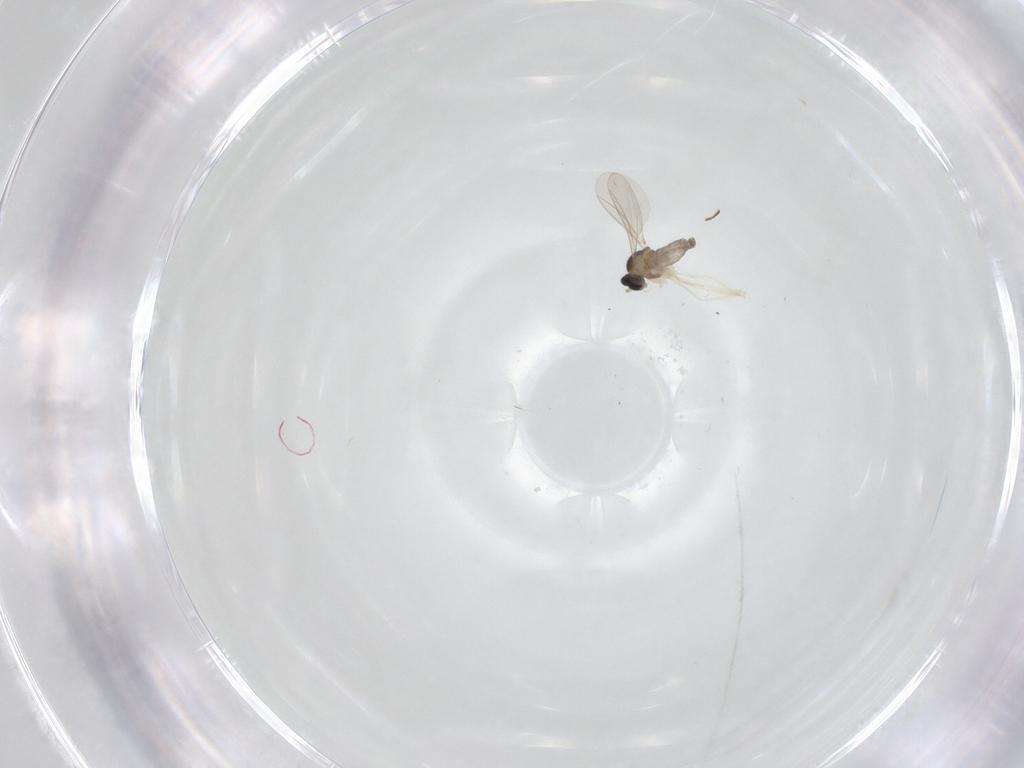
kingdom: Animalia
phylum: Arthropoda
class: Insecta
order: Diptera
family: Cecidomyiidae
